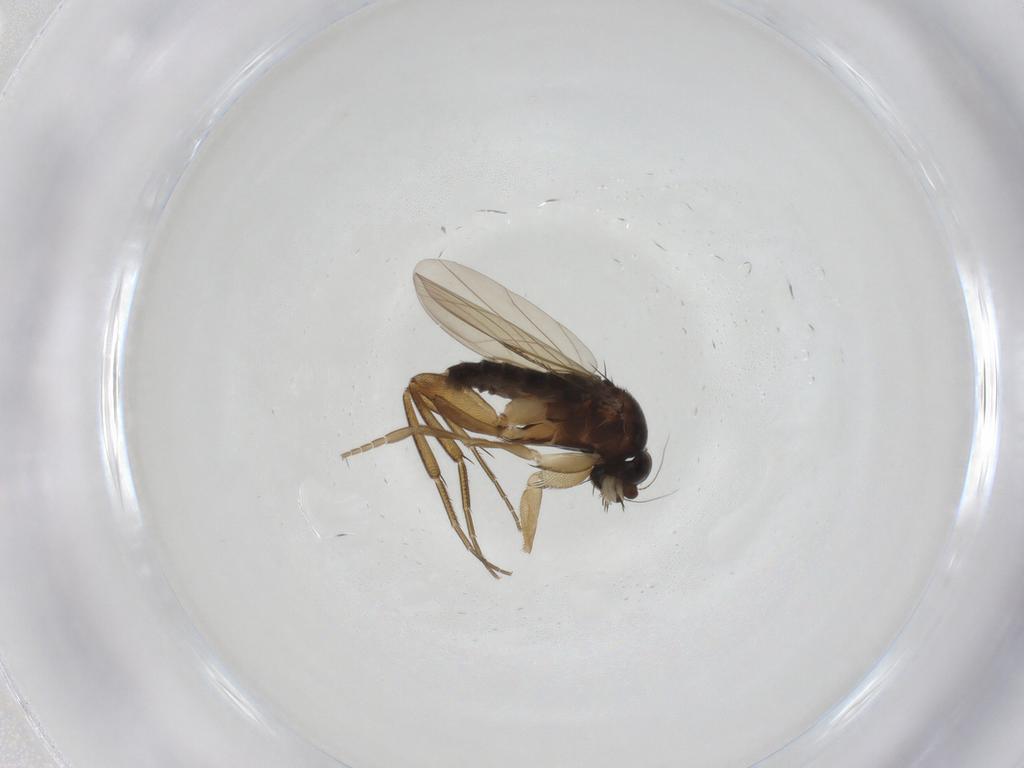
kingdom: Animalia
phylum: Arthropoda
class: Insecta
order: Diptera
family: Phoridae
